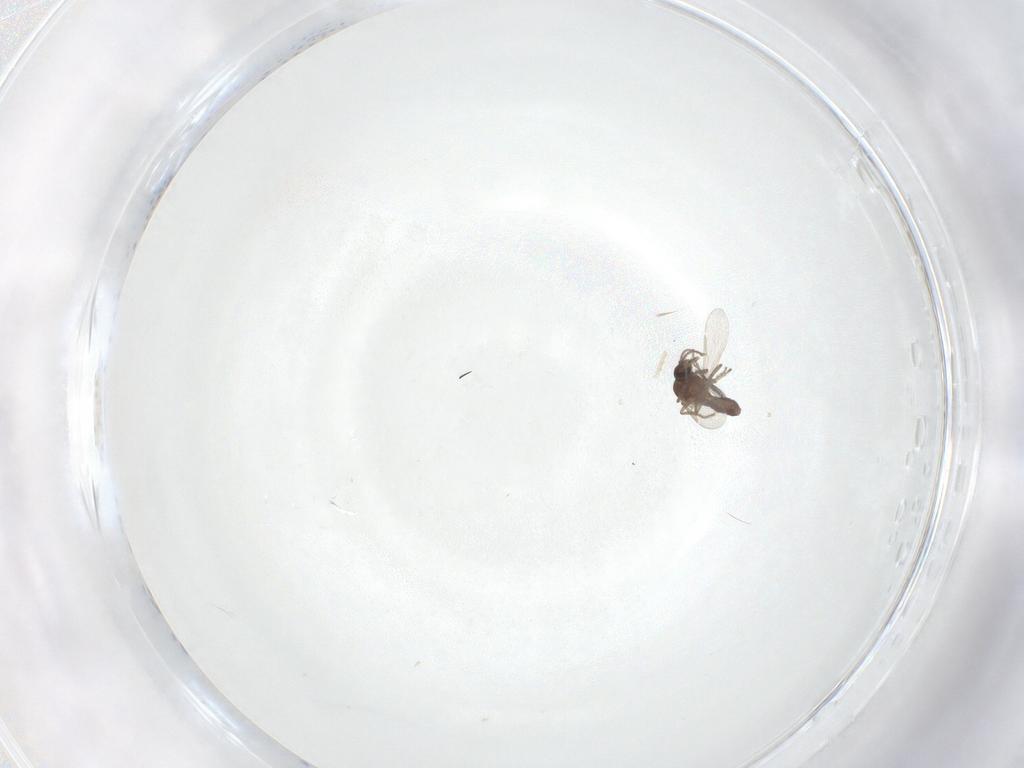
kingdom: Animalia
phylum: Arthropoda
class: Insecta
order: Diptera
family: Ceratopogonidae
